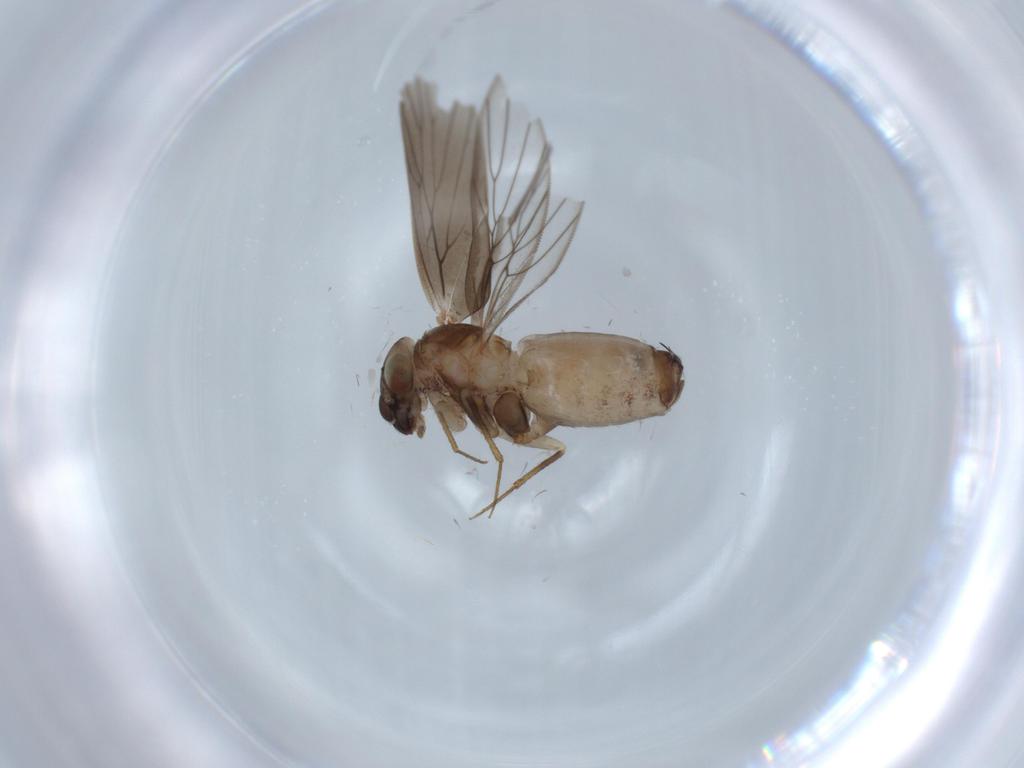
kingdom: Animalia
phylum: Arthropoda
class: Insecta
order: Psocodea
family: Lepidopsocidae
